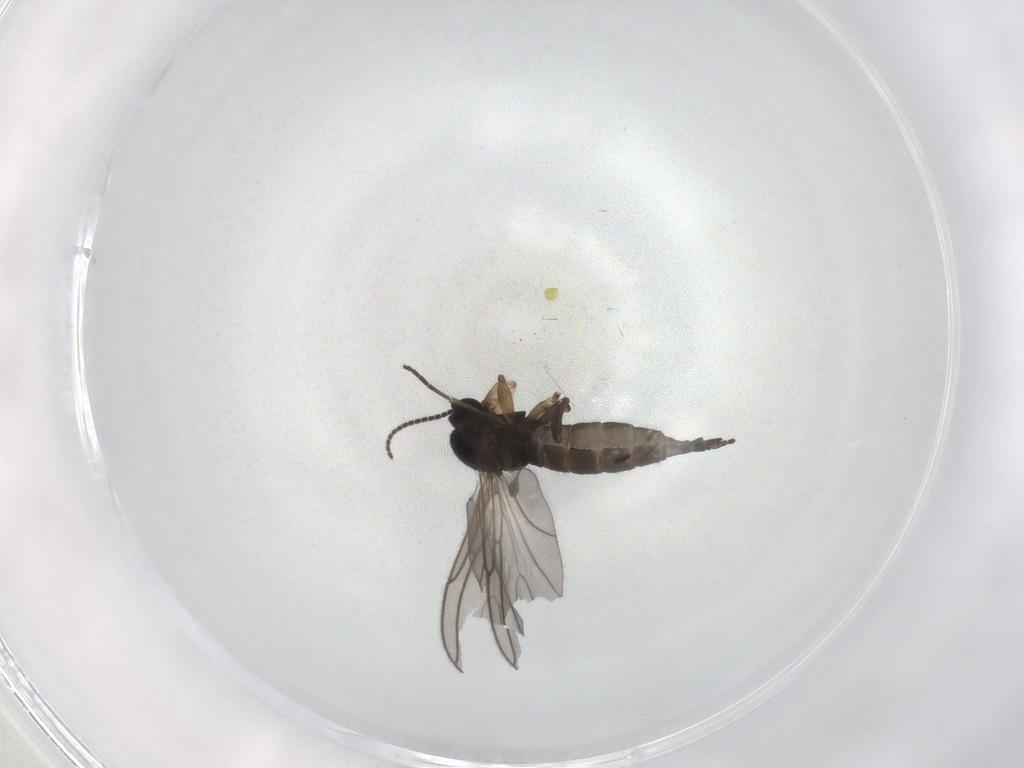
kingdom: Animalia
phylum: Arthropoda
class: Insecta
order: Diptera
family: Sciaridae
